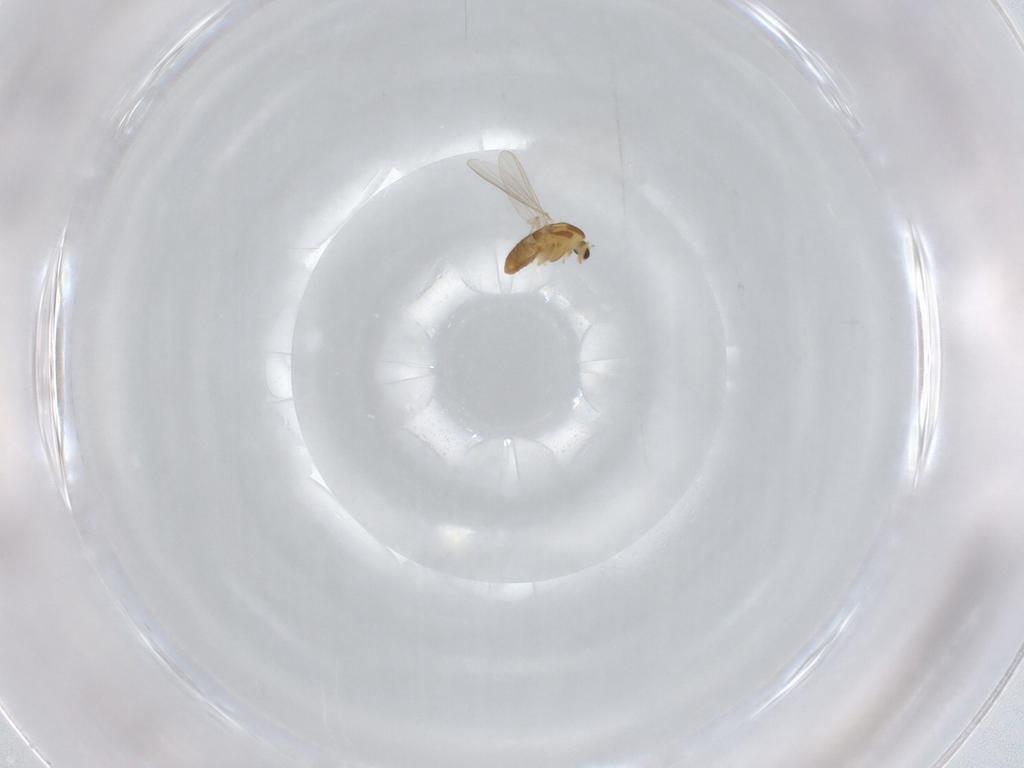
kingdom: Animalia
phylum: Arthropoda
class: Insecta
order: Diptera
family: Chironomidae
